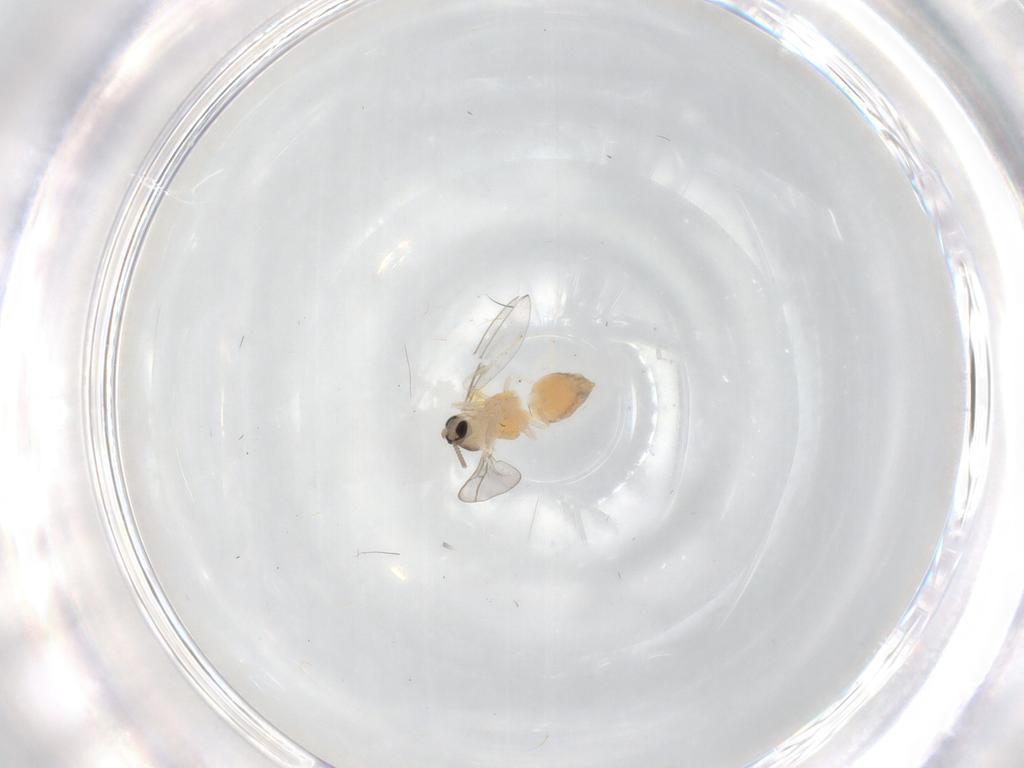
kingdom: Animalia
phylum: Arthropoda
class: Insecta
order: Diptera
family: Cecidomyiidae
